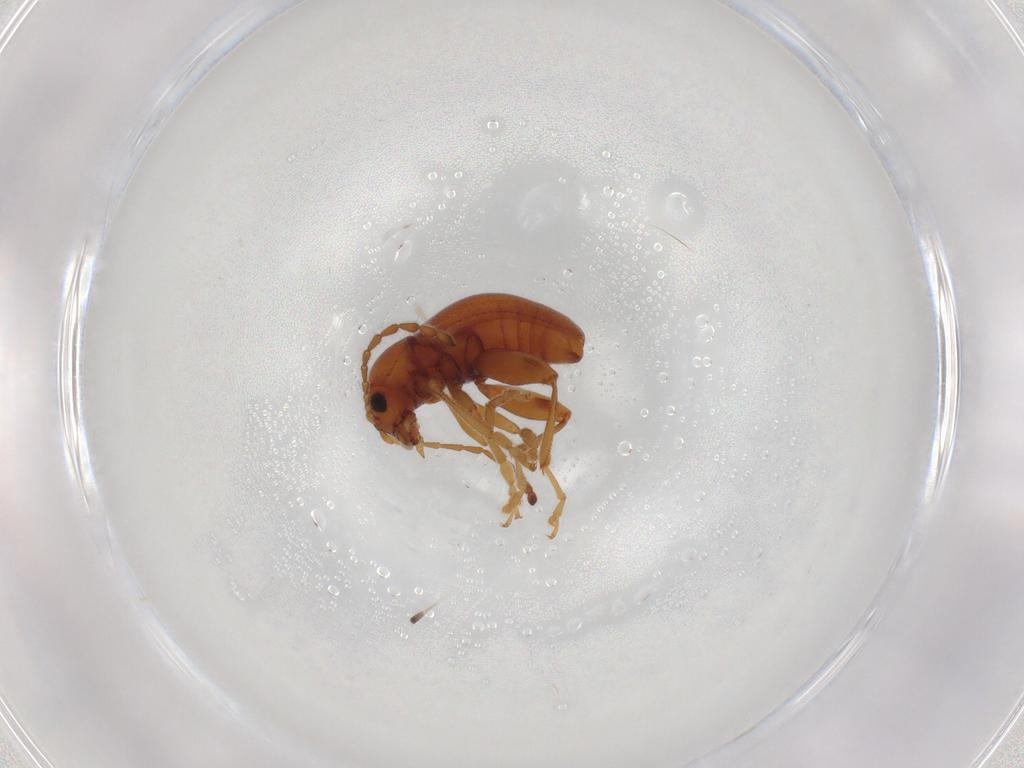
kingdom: Animalia
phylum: Arthropoda
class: Insecta
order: Coleoptera
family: Chrysomelidae
